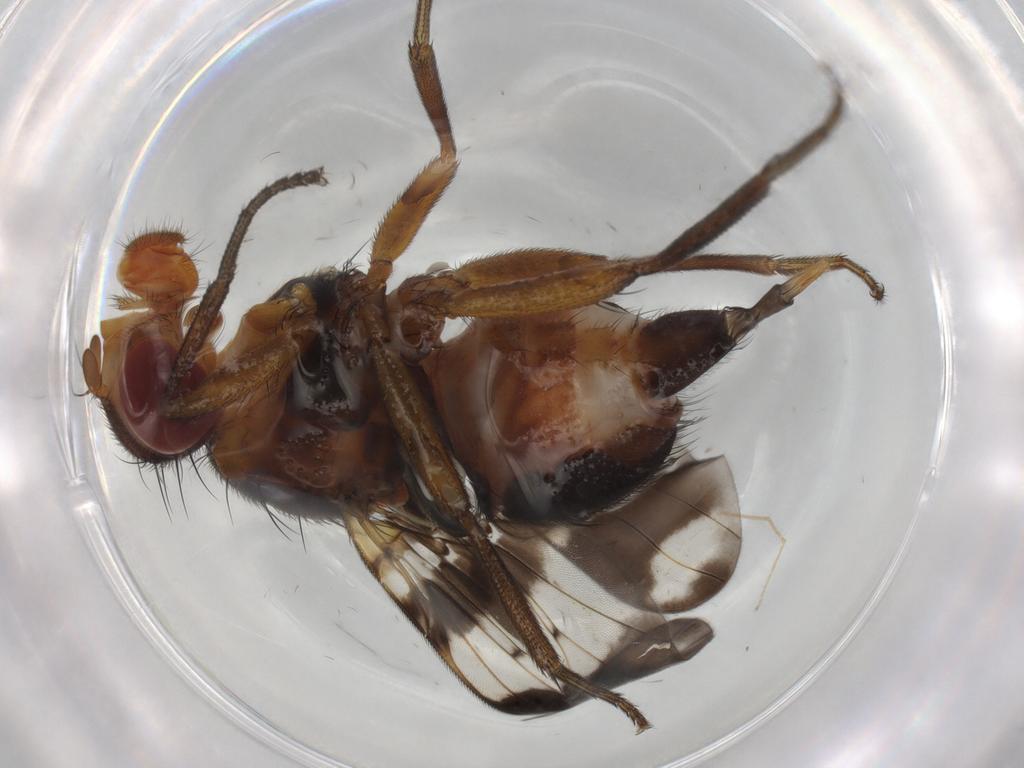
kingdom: Animalia
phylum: Arthropoda
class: Insecta
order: Diptera
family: Richardiidae
